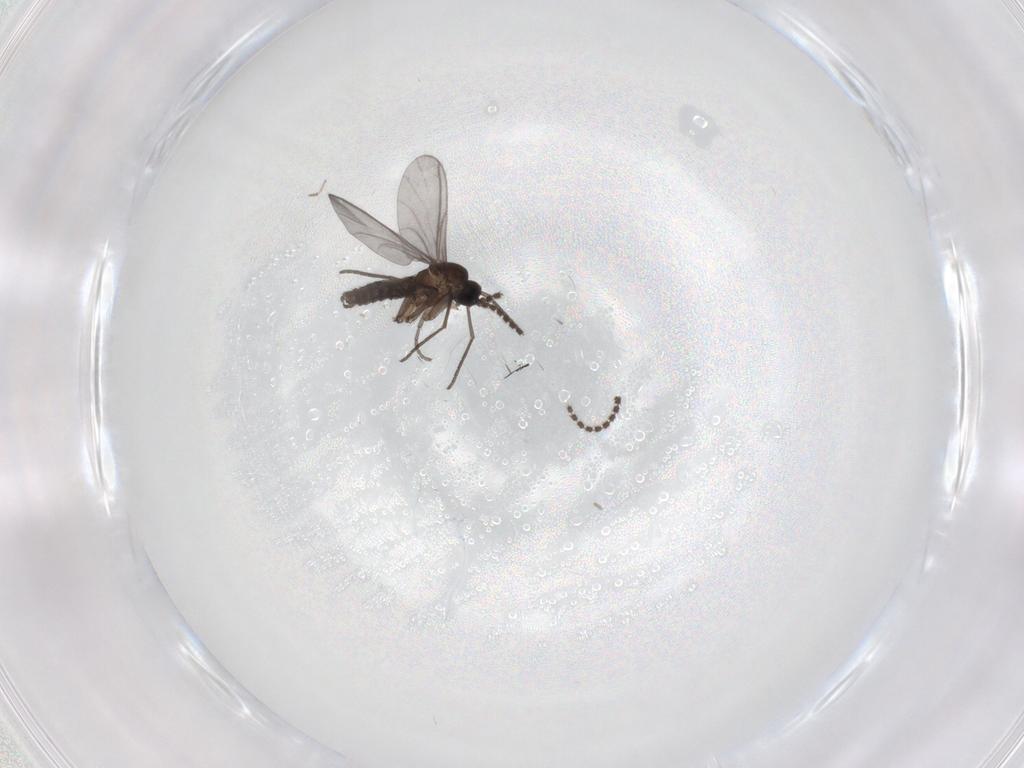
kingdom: Animalia
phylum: Arthropoda
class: Insecta
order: Diptera
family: Sciaridae
